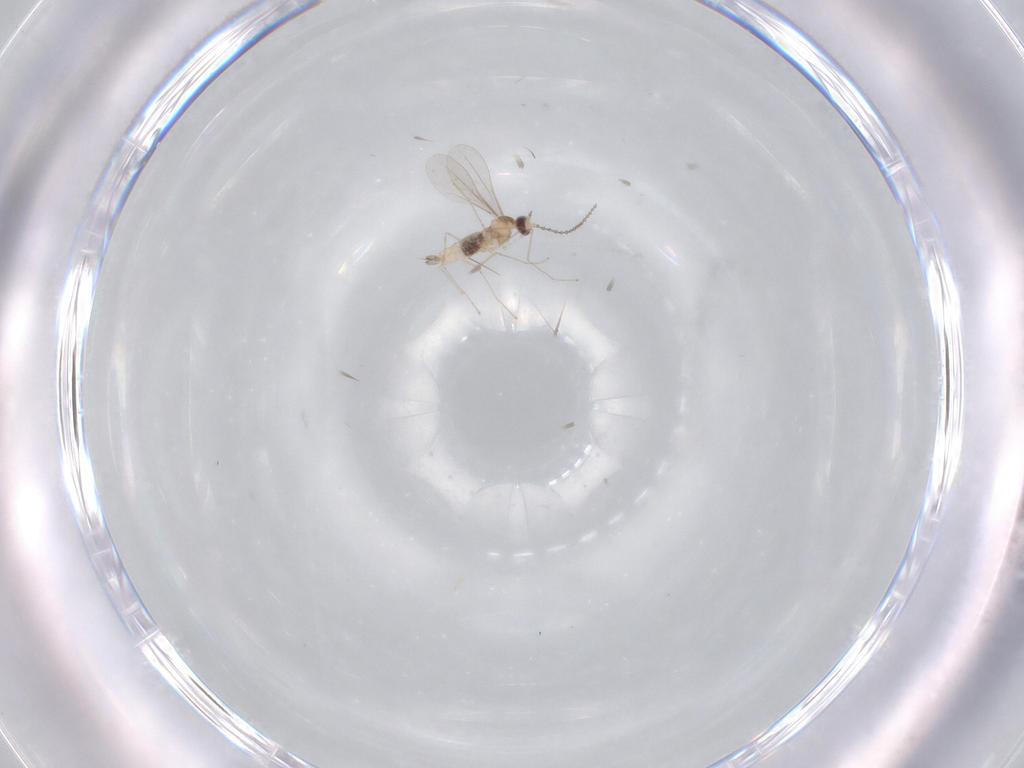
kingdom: Animalia
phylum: Arthropoda
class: Insecta
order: Diptera
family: Cecidomyiidae
